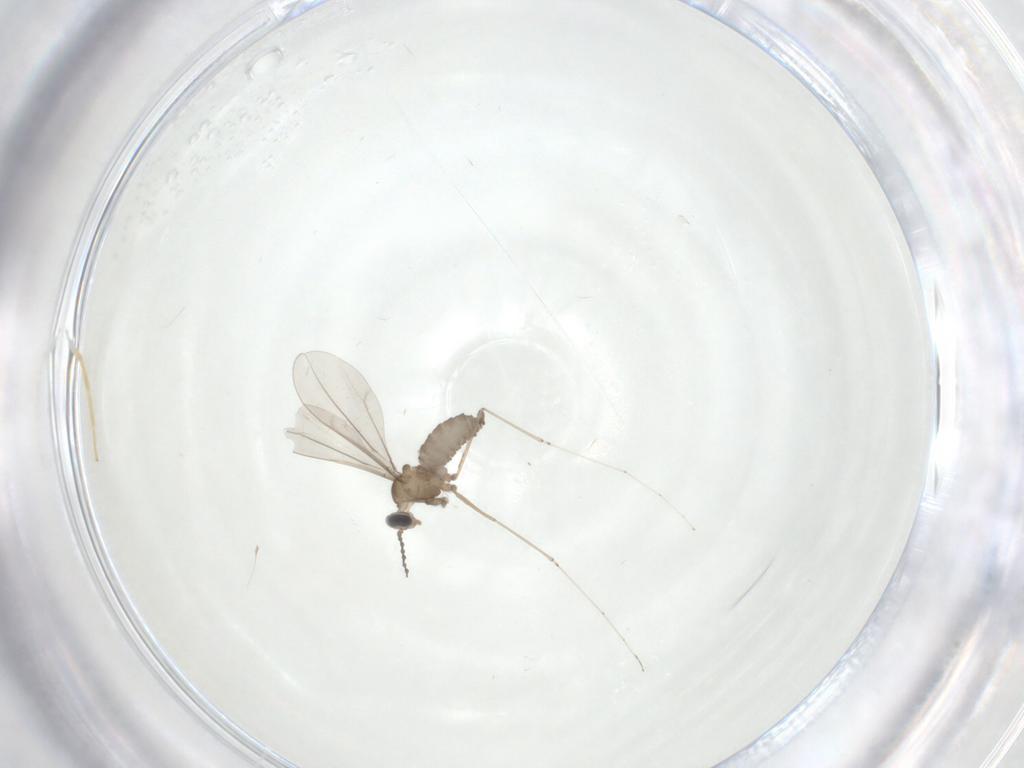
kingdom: Animalia
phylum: Arthropoda
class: Insecta
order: Diptera
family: Cecidomyiidae
